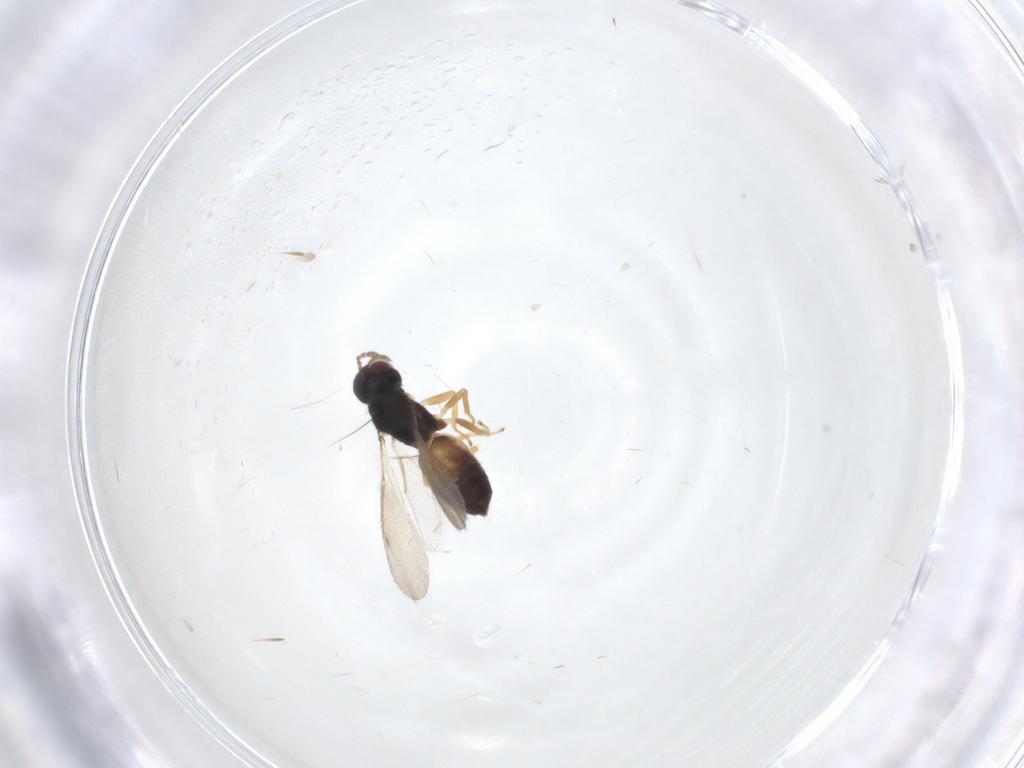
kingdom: Animalia
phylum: Arthropoda
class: Insecta
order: Hymenoptera
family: Eulophidae
